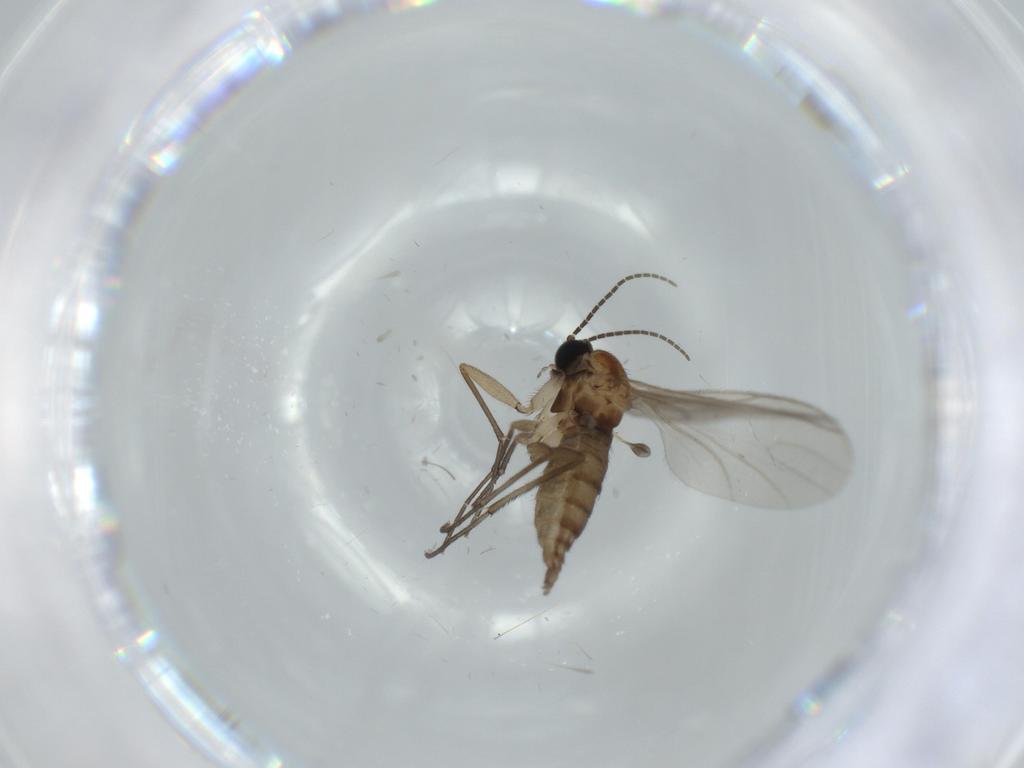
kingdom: Animalia
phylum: Arthropoda
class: Insecta
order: Diptera
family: Sciaridae
